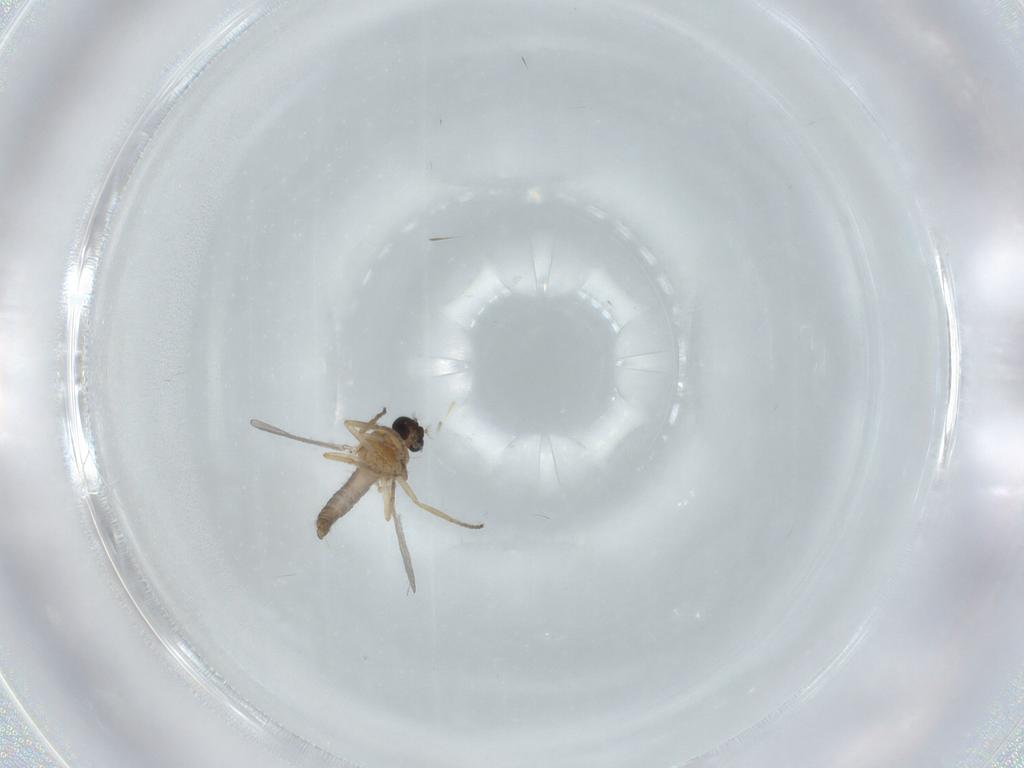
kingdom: Animalia
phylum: Arthropoda
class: Insecta
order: Diptera
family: Ceratopogonidae
